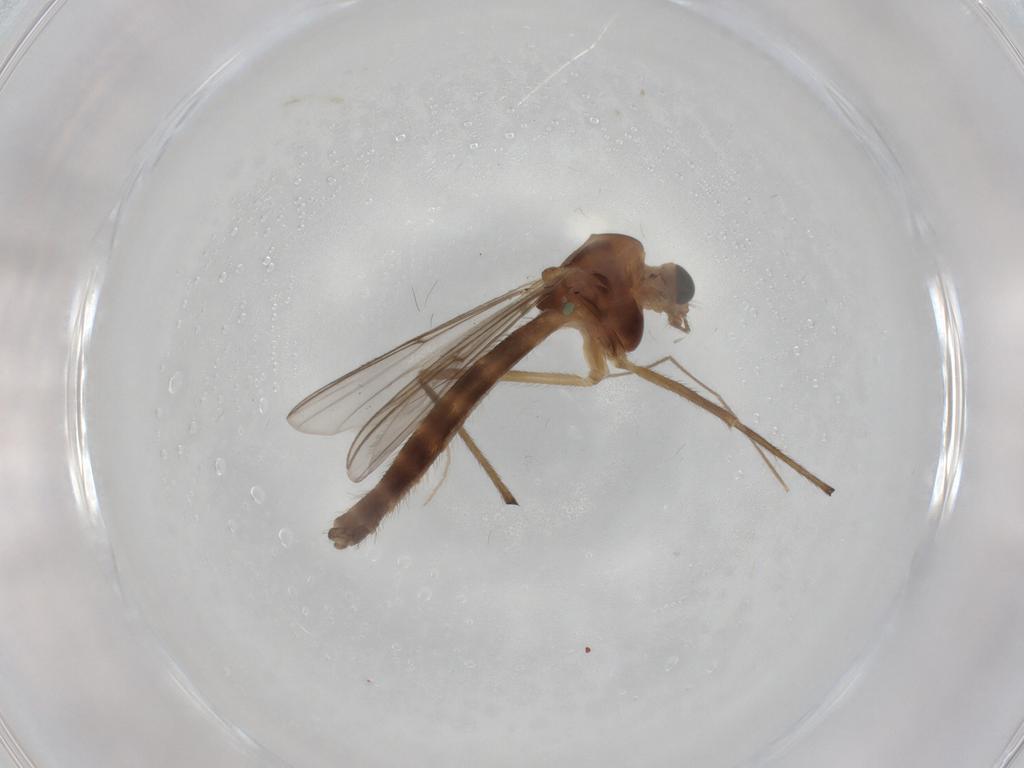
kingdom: Animalia
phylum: Arthropoda
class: Insecta
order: Diptera
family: Chironomidae
